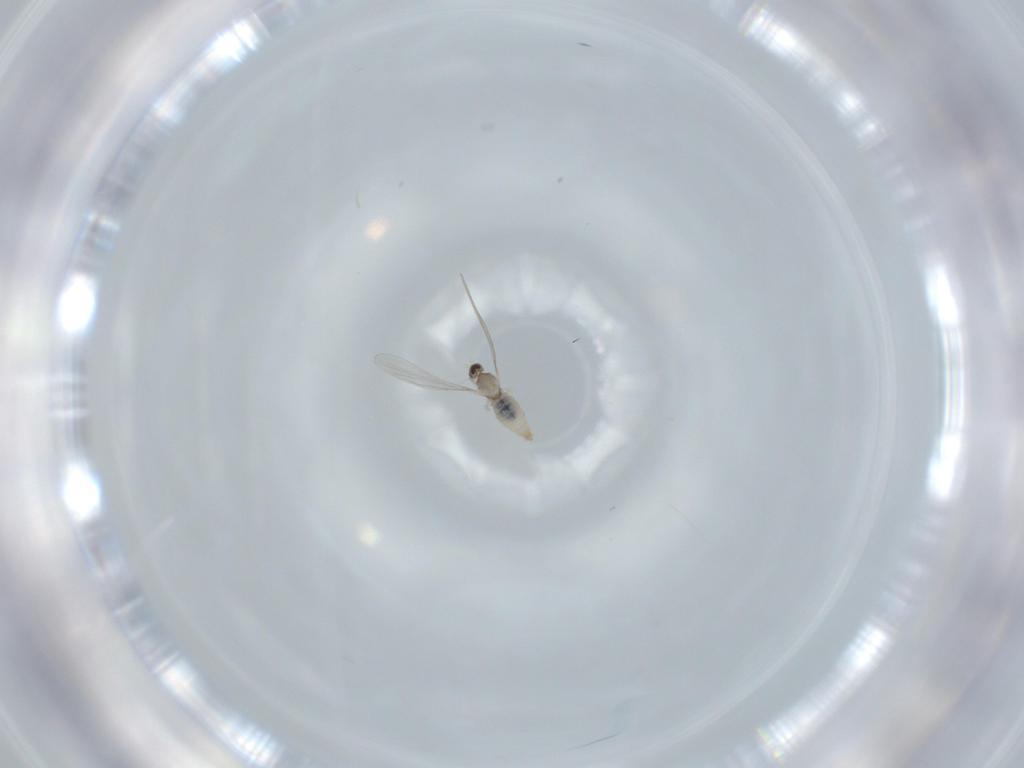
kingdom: Animalia
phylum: Arthropoda
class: Insecta
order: Diptera
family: Cecidomyiidae
